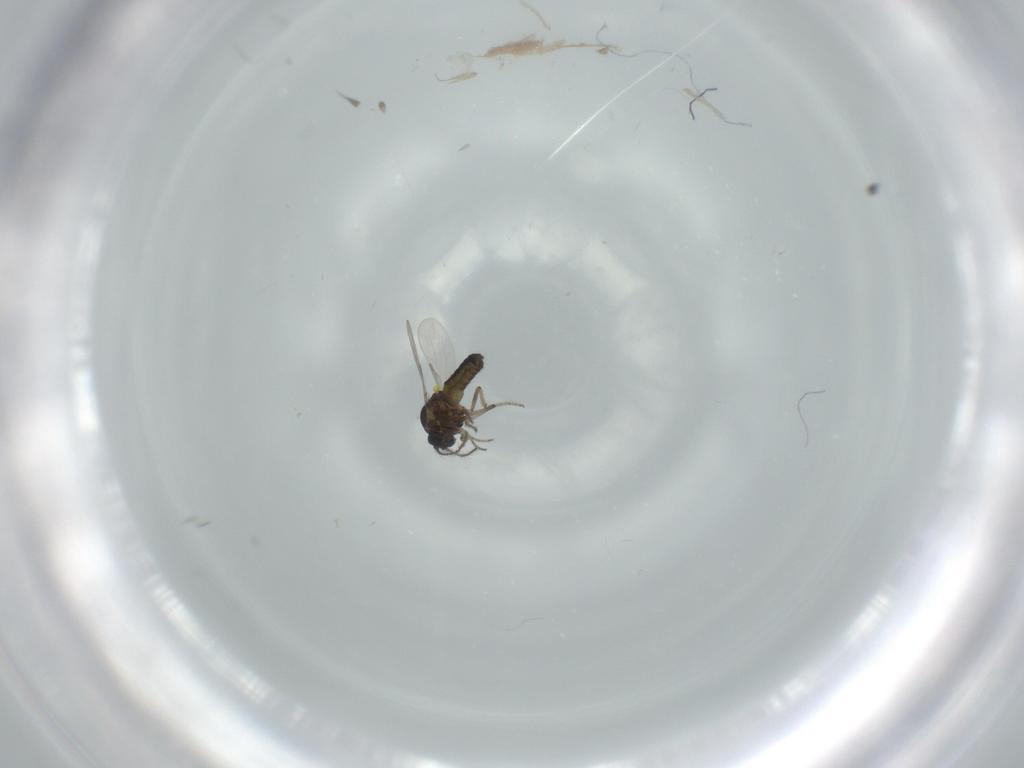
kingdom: Animalia
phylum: Arthropoda
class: Insecta
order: Diptera
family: Ceratopogonidae
